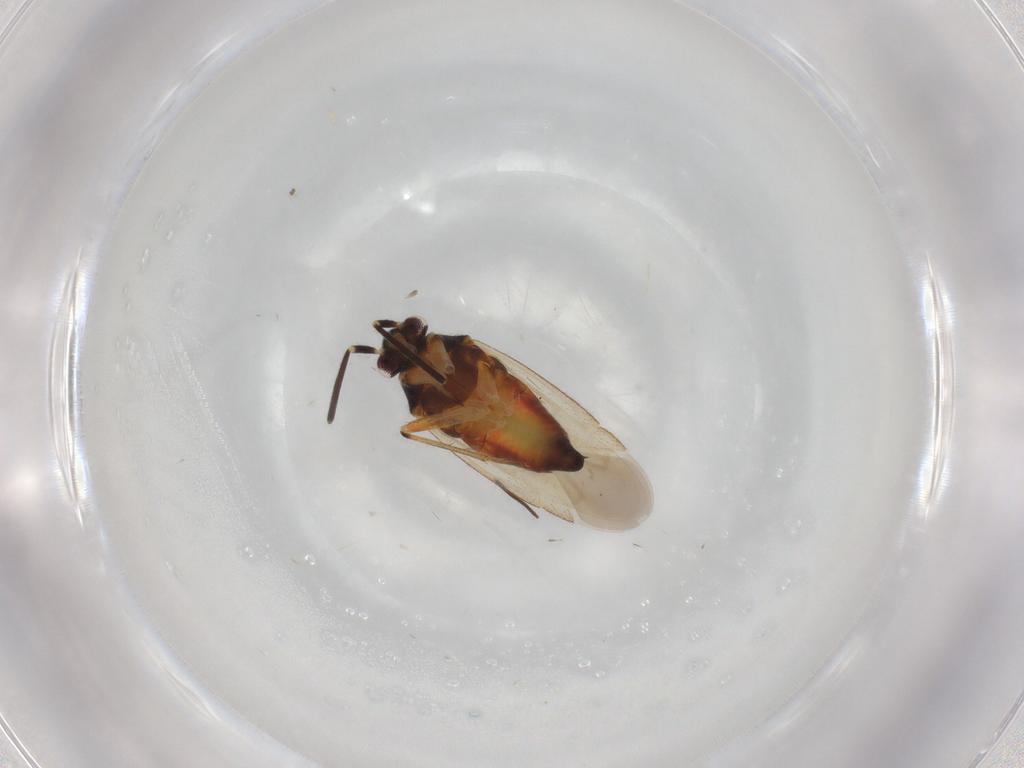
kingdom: Animalia
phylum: Arthropoda
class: Insecta
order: Hemiptera
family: Miridae
